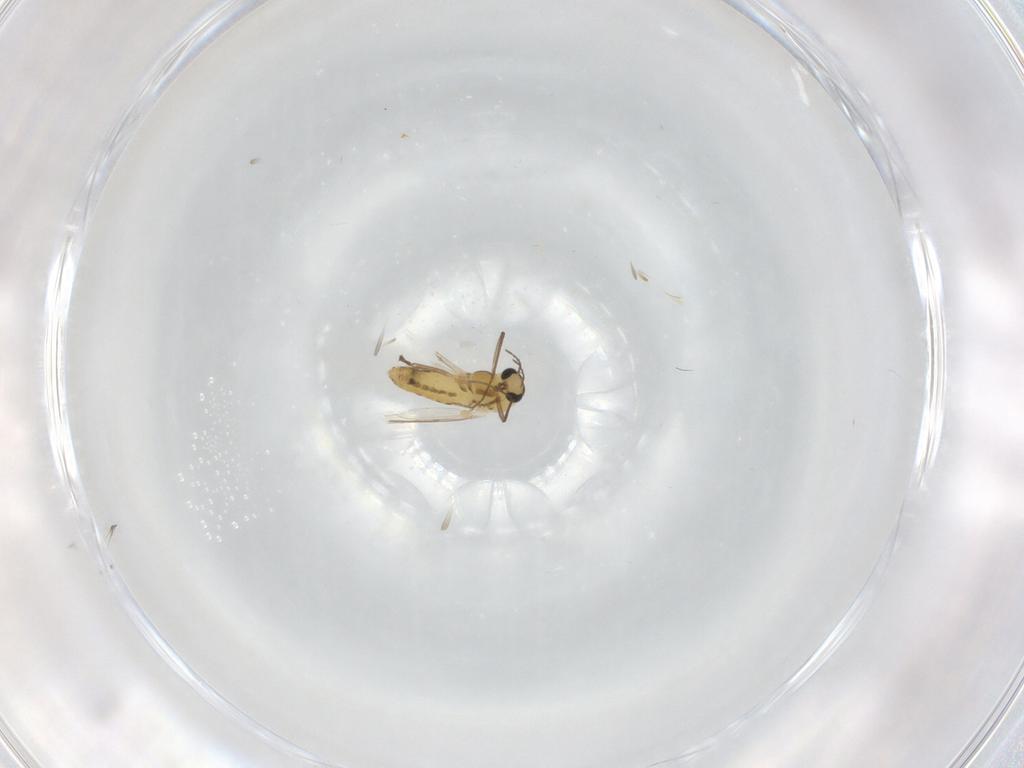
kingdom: Animalia
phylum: Arthropoda
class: Insecta
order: Diptera
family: Chironomidae
